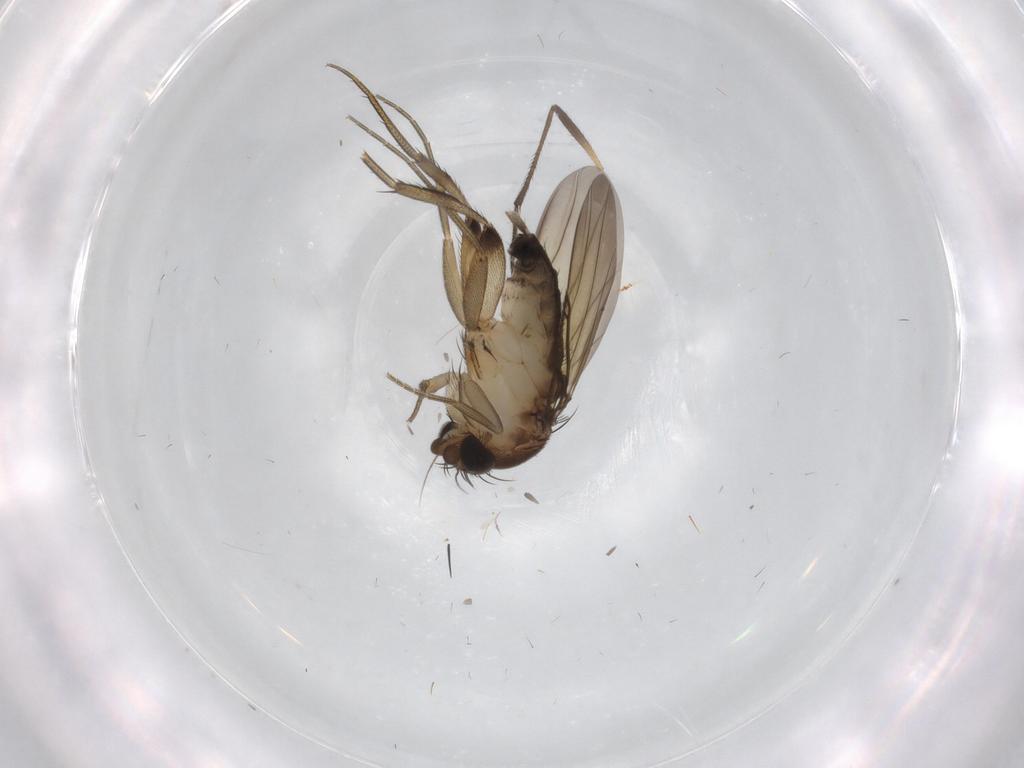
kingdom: Animalia
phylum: Arthropoda
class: Insecta
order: Diptera
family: Sciaridae
